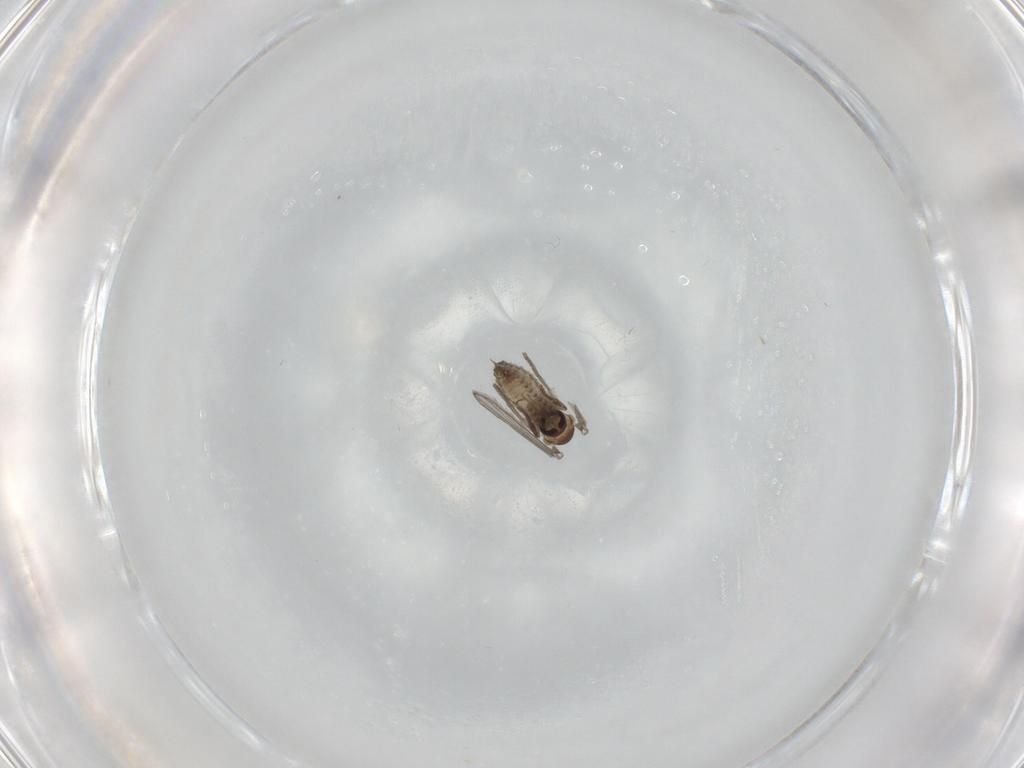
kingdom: Animalia
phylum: Arthropoda
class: Insecta
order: Diptera
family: Psychodidae
